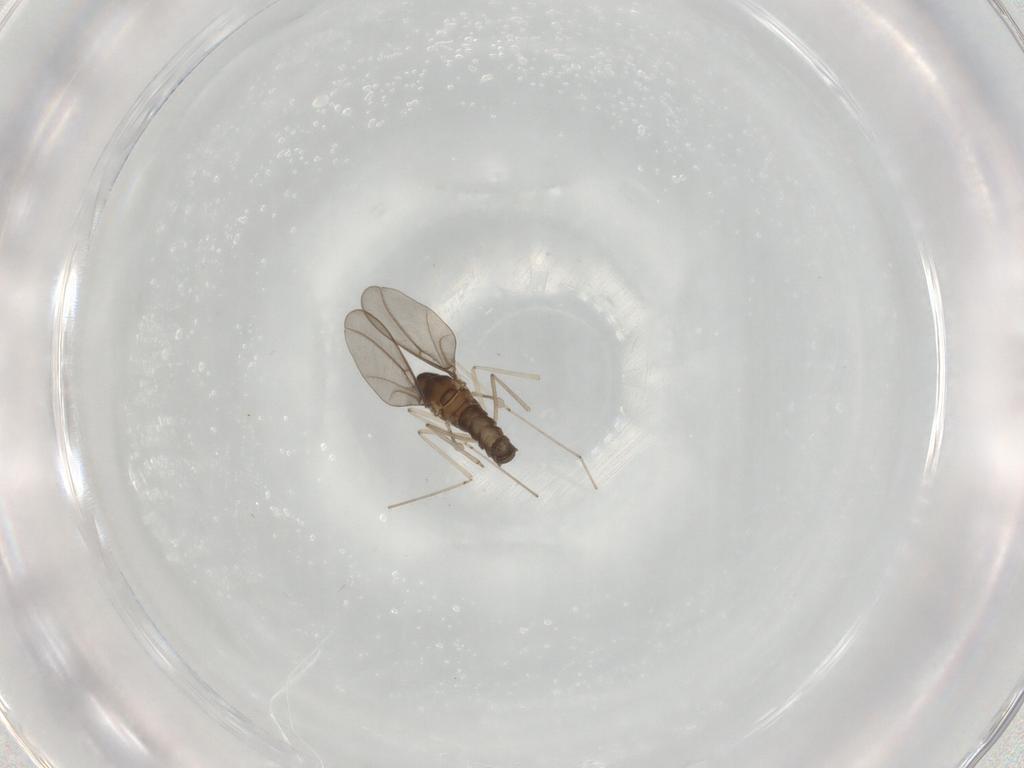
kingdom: Animalia
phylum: Arthropoda
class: Insecta
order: Diptera
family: Cecidomyiidae
